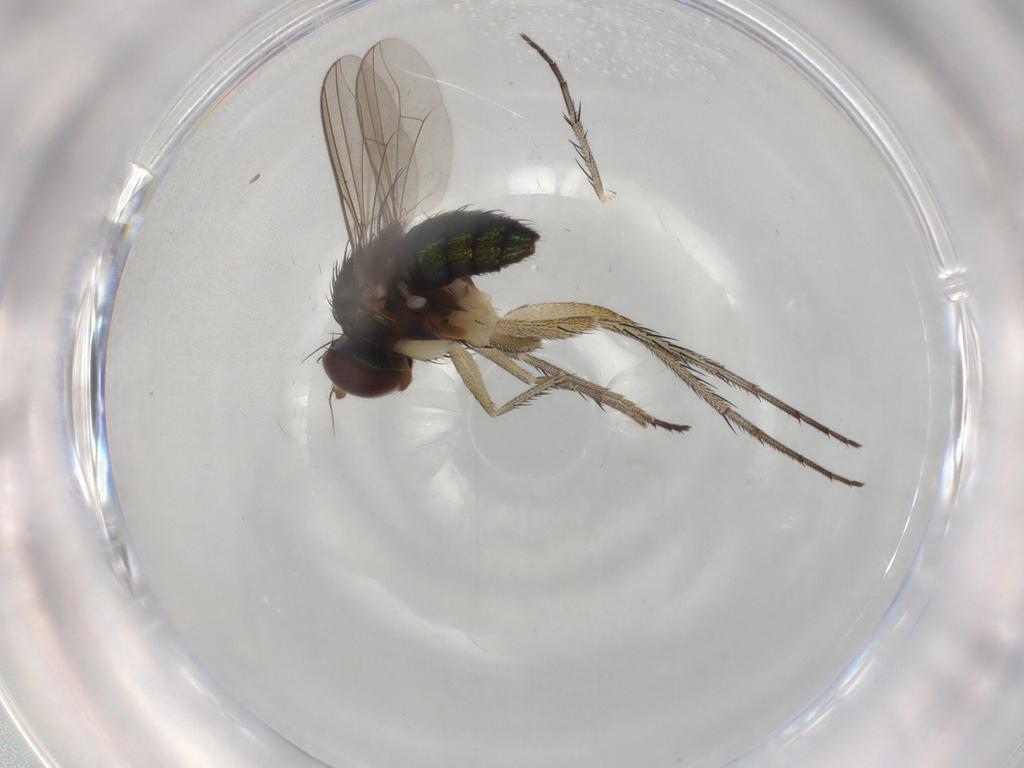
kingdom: Animalia
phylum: Arthropoda
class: Insecta
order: Diptera
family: Dolichopodidae
